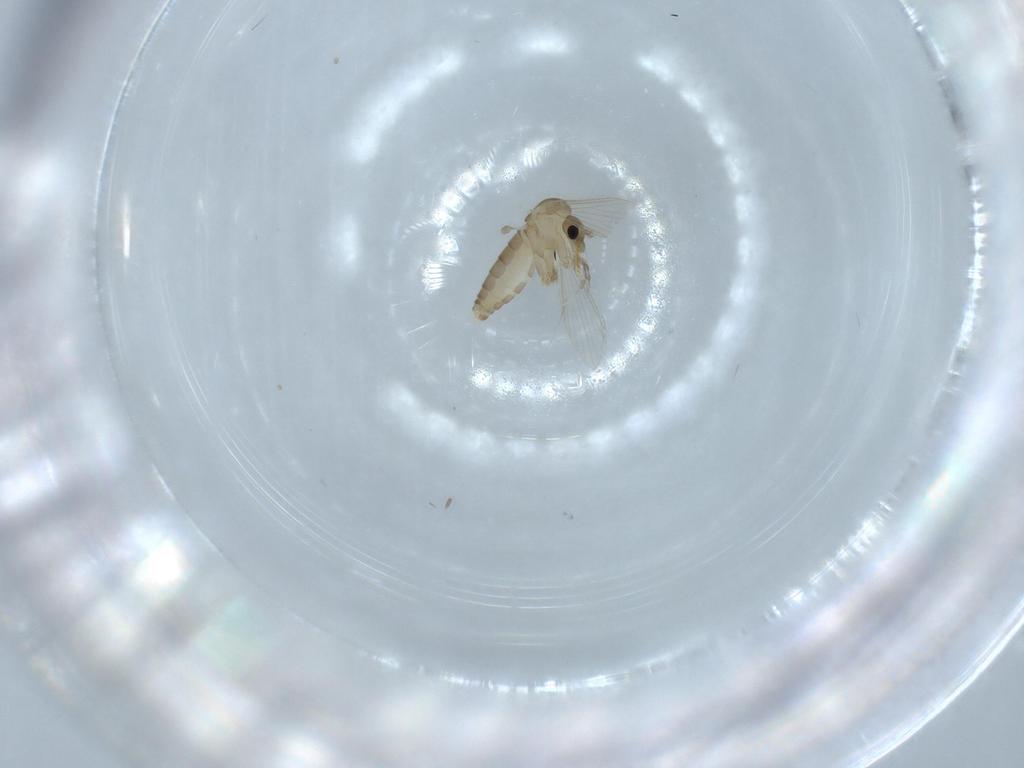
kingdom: Animalia
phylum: Arthropoda
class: Insecta
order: Diptera
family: Psychodidae
